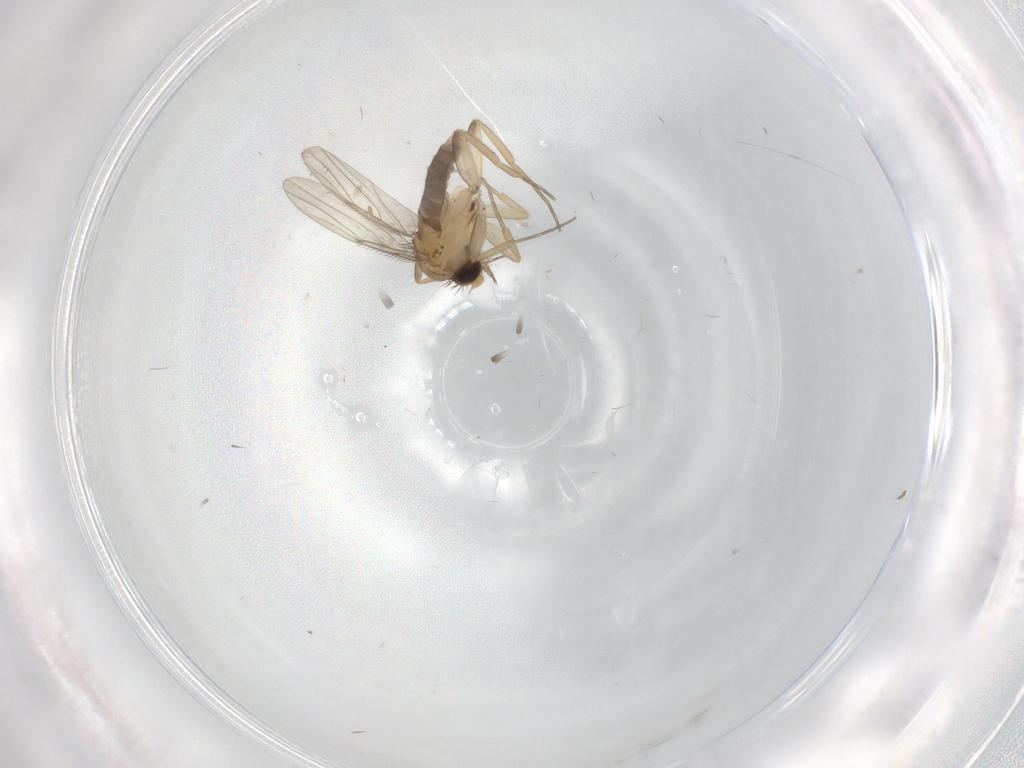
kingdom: Animalia
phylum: Arthropoda
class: Insecta
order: Diptera
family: Phoridae
